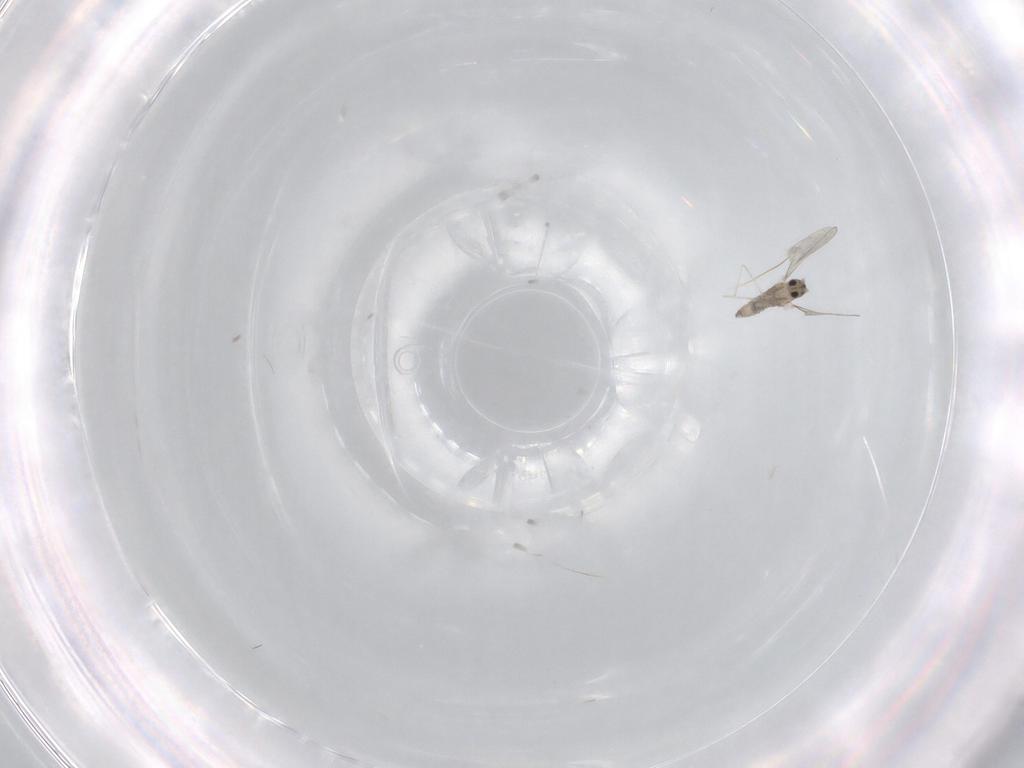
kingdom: Animalia
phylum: Arthropoda
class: Insecta
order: Diptera
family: Cecidomyiidae
